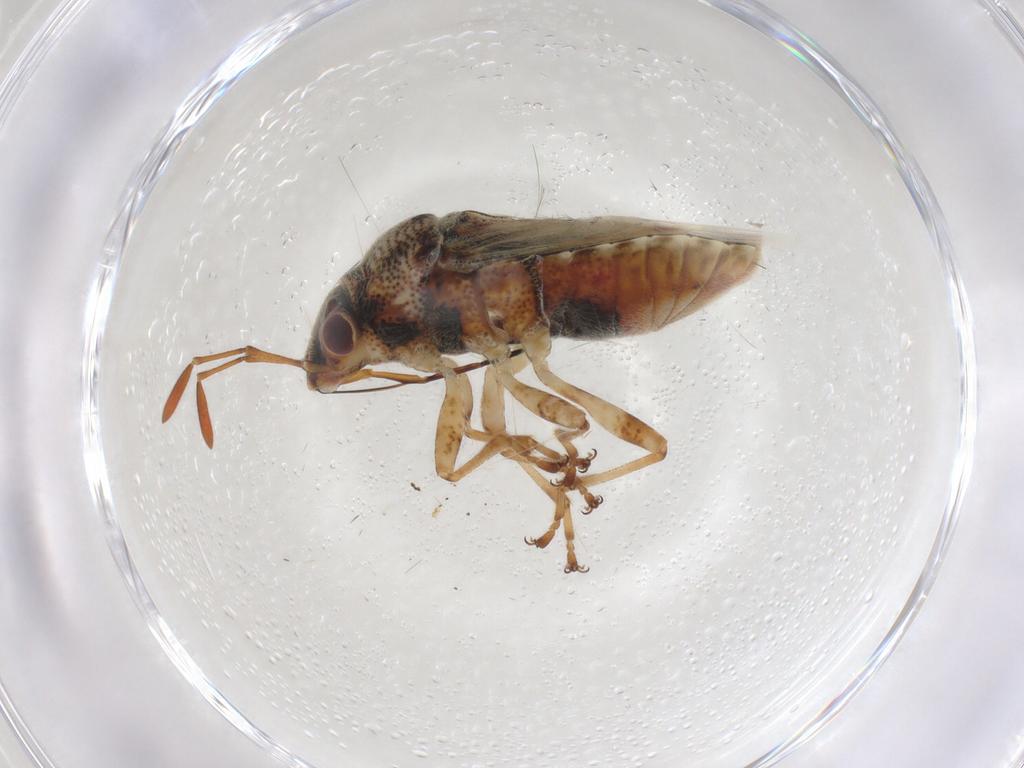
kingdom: Animalia
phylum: Arthropoda
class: Insecta
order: Hemiptera
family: Lygaeidae
